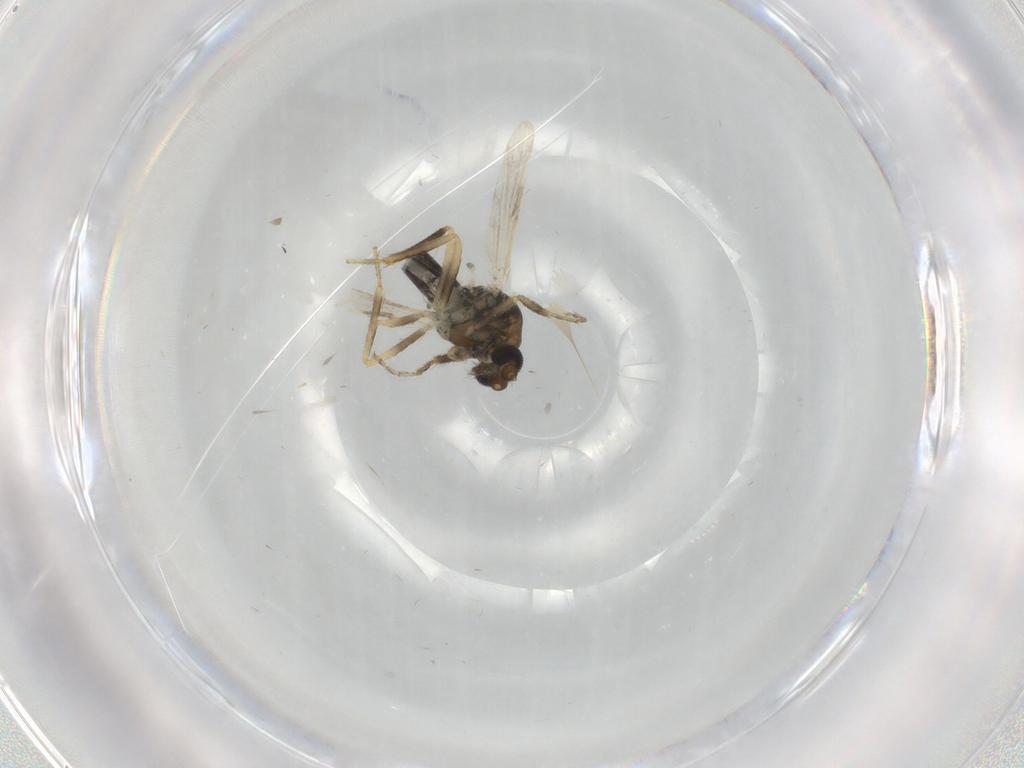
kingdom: Animalia
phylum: Arthropoda
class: Insecta
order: Diptera
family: Ceratopogonidae
